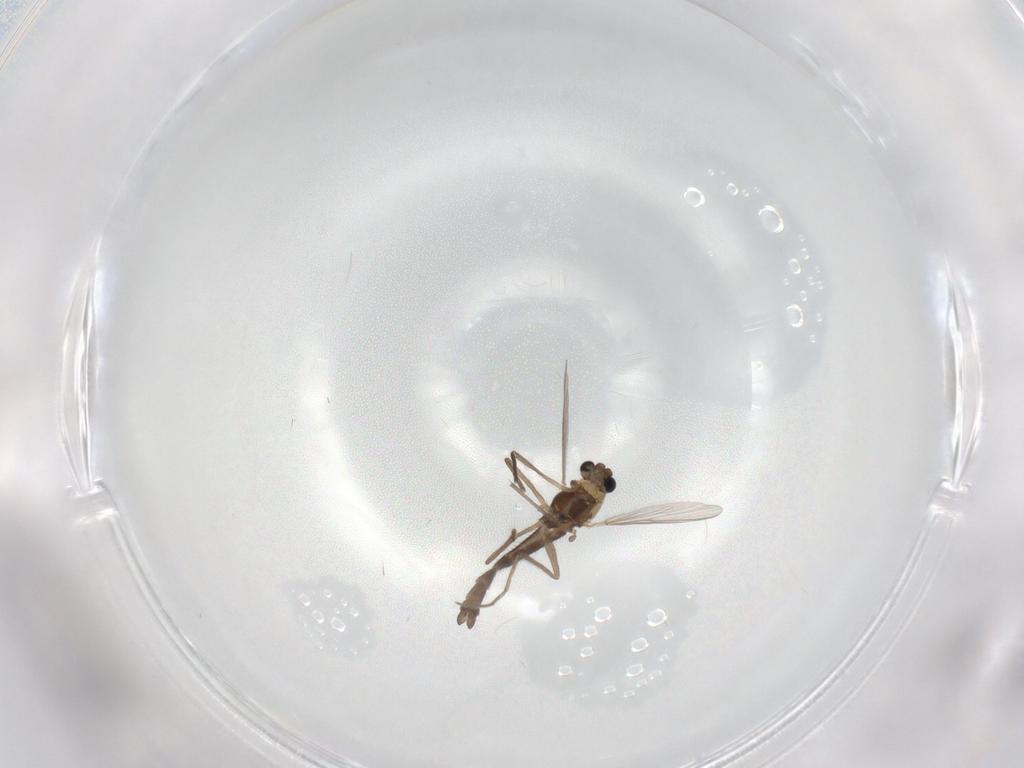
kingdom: Animalia
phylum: Arthropoda
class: Insecta
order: Diptera
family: Chironomidae
